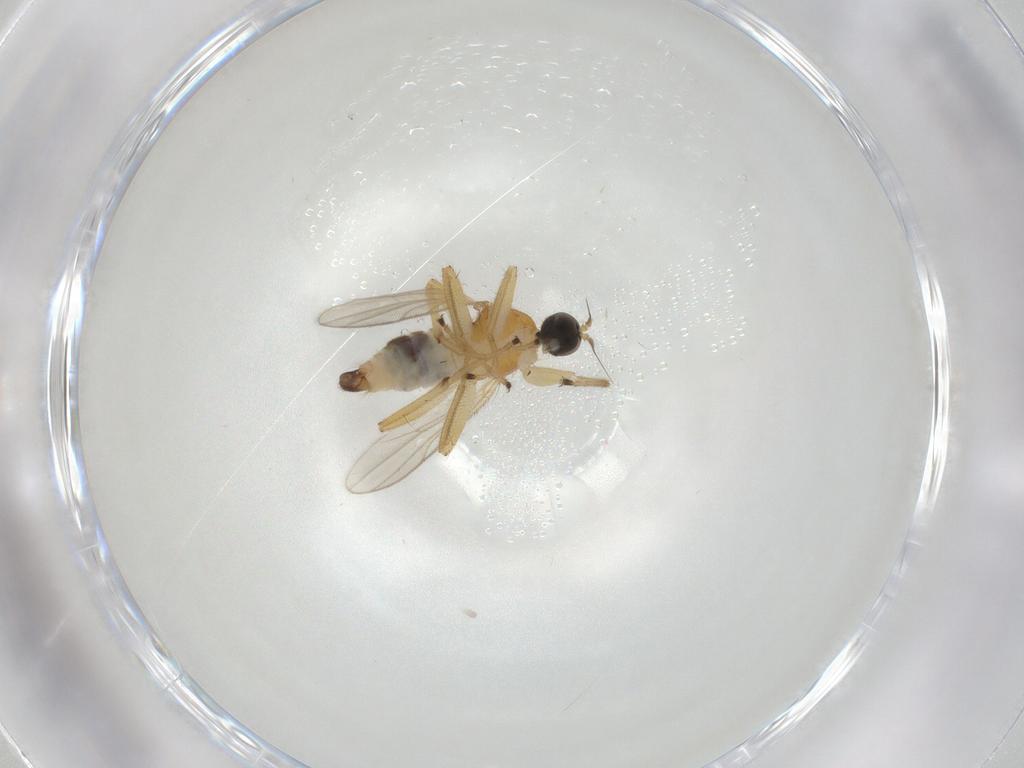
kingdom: Animalia
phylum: Arthropoda
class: Insecta
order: Diptera
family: Hybotidae
